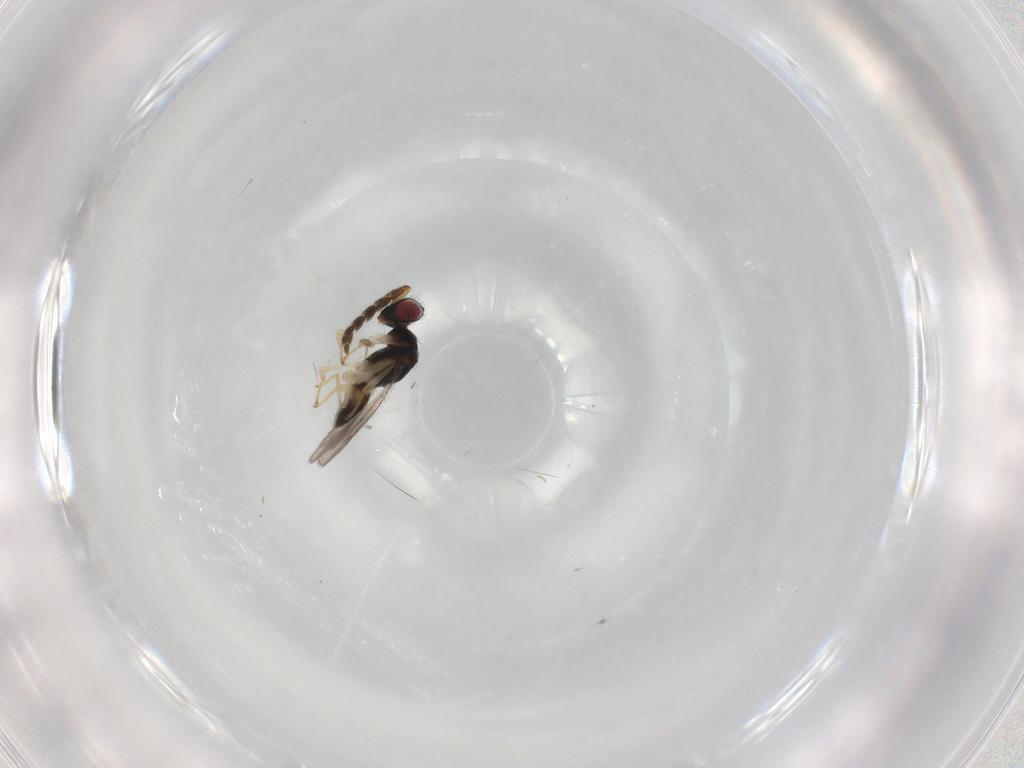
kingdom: Animalia
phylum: Arthropoda
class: Insecta
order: Hymenoptera
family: Eulophidae
